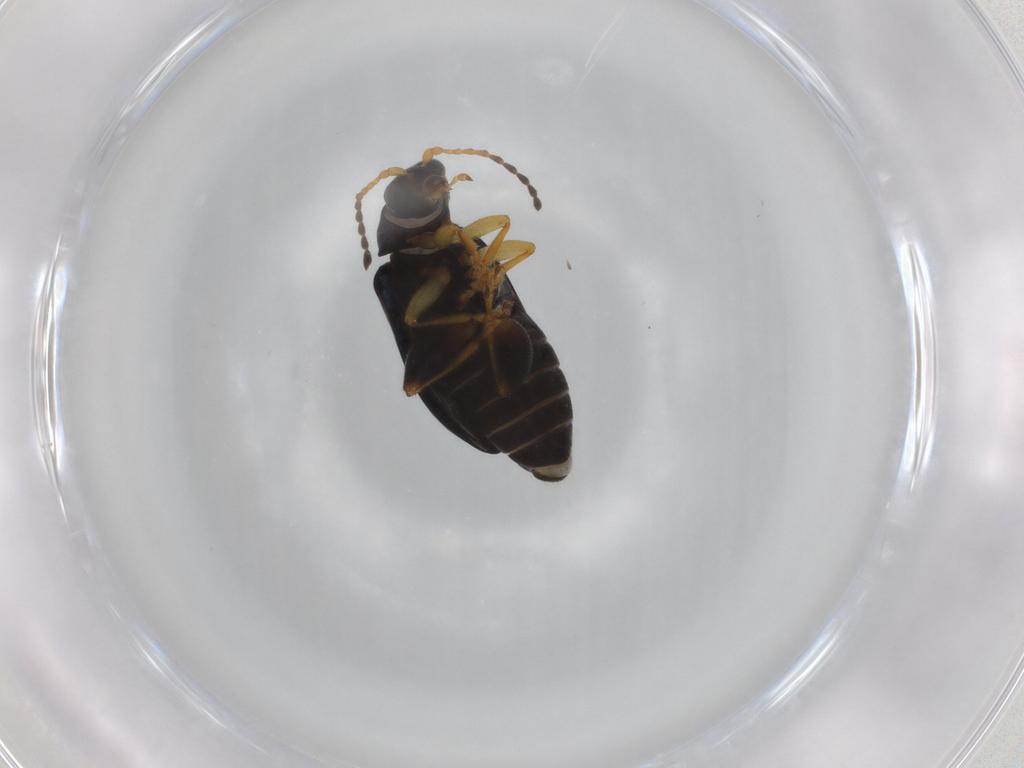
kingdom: Animalia
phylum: Arthropoda
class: Insecta
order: Coleoptera
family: Chrysomelidae
